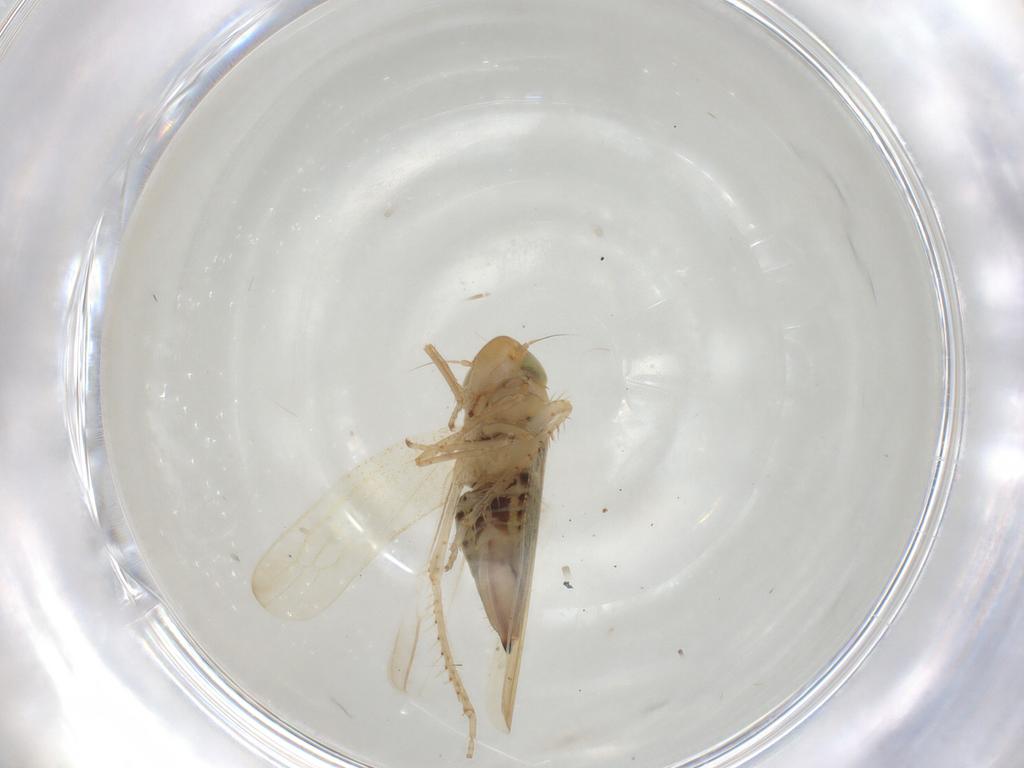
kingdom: Animalia
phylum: Arthropoda
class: Insecta
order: Hemiptera
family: Cicadellidae
